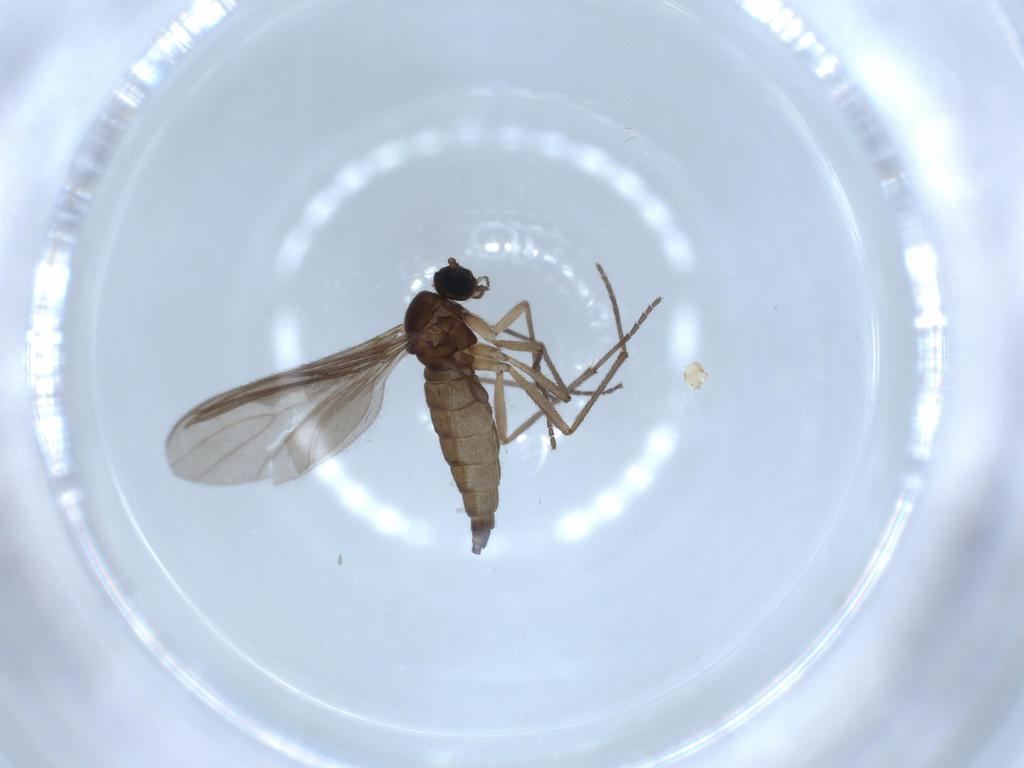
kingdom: Animalia
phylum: Arthropoda
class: Insecta
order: Diptera
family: Sciaridae
